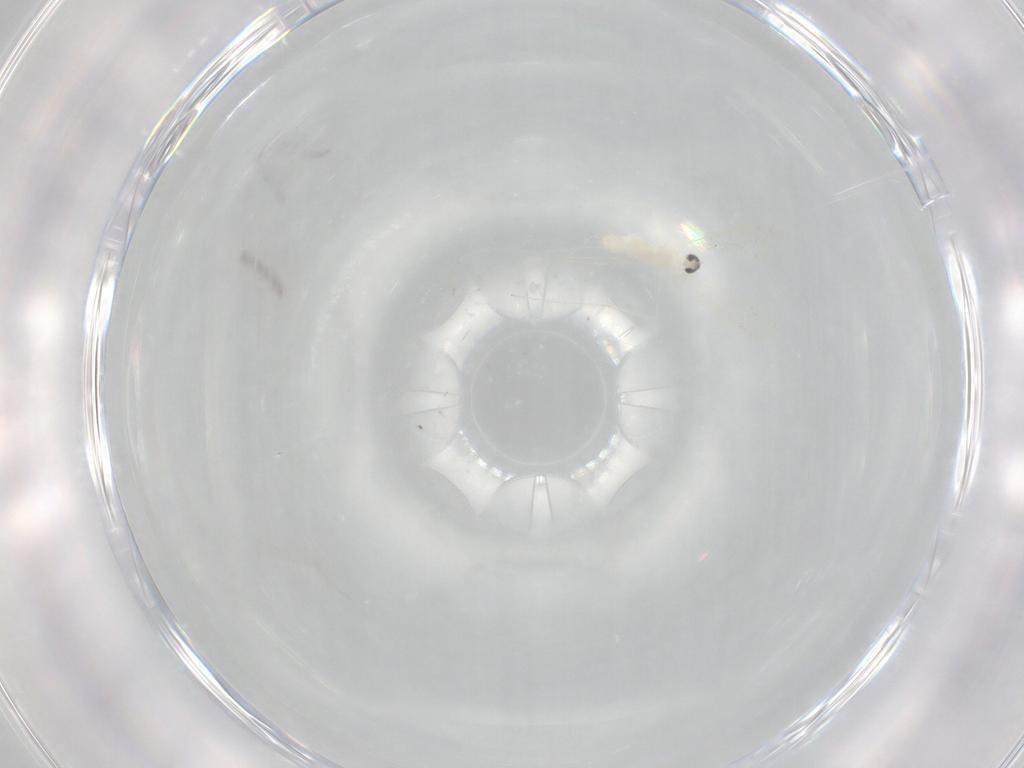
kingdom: Animalia
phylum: Arthropoda
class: Insecta
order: Diptera
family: Cecidomyiidae
